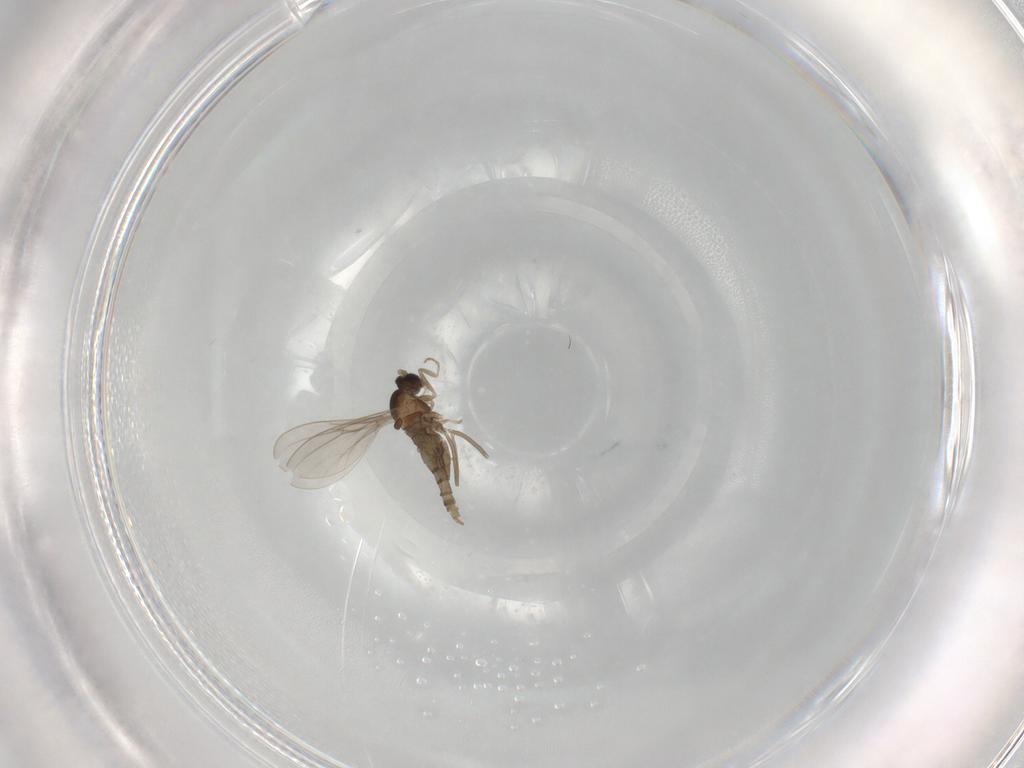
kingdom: Animalia
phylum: Arthropoda
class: Insecta
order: Diptera
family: Cecidomyiidae
